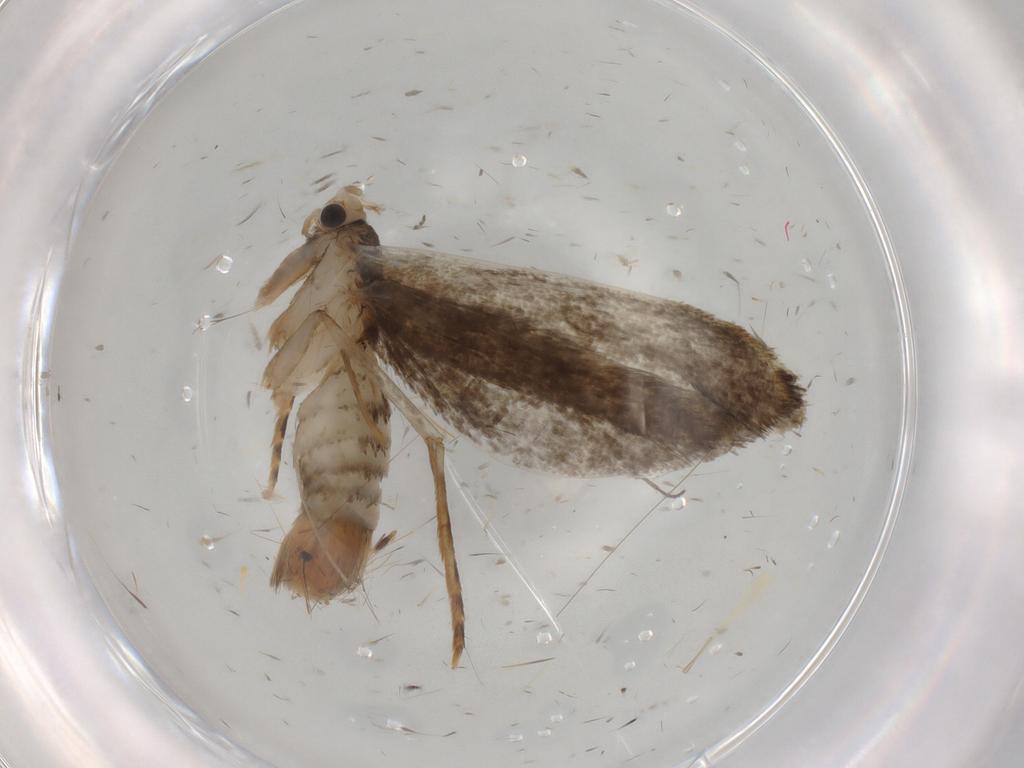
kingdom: Animalia
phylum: Arthropoda
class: Insecta
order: Lepidoptera
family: Tineidae
